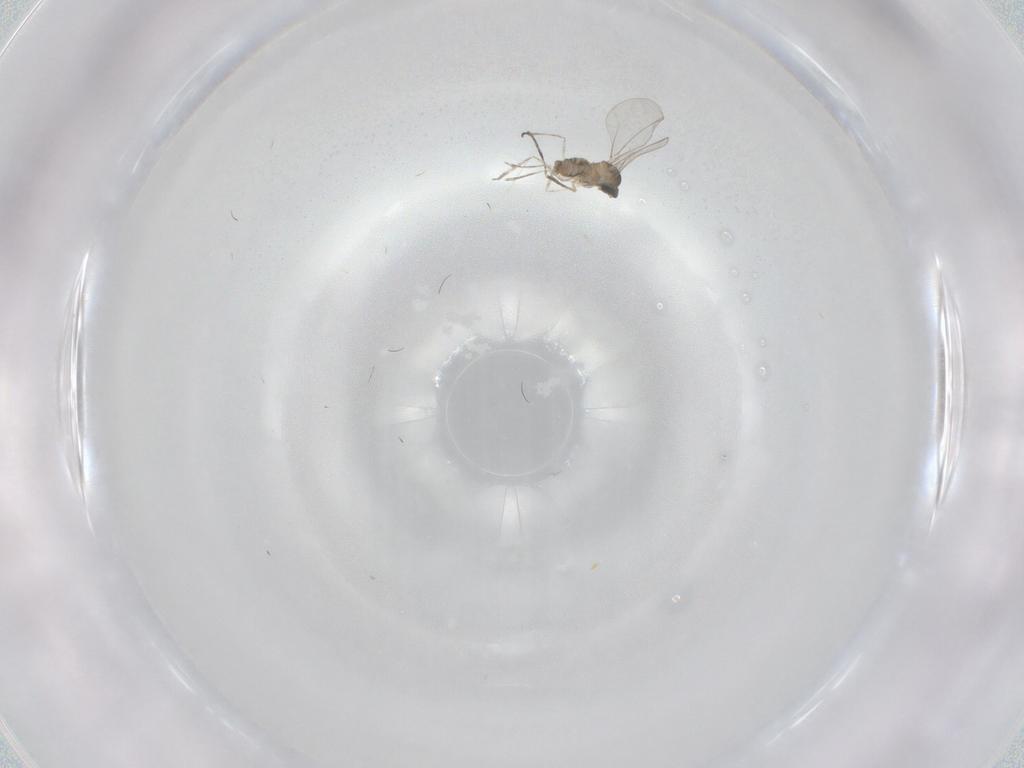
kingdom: Animalia
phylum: Arthropoda
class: Insecta
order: Diptera
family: Cecidomyiidae
